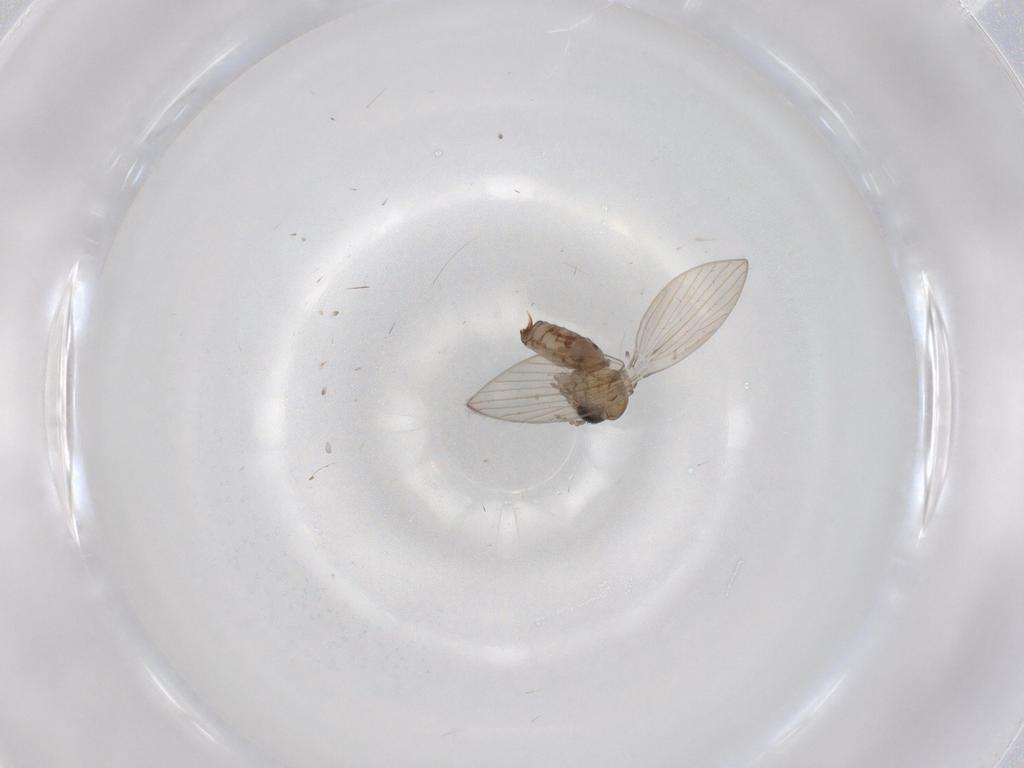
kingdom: Animalia
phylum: Arthropoda
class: Insecta
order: Diptera
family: Psychodidae
